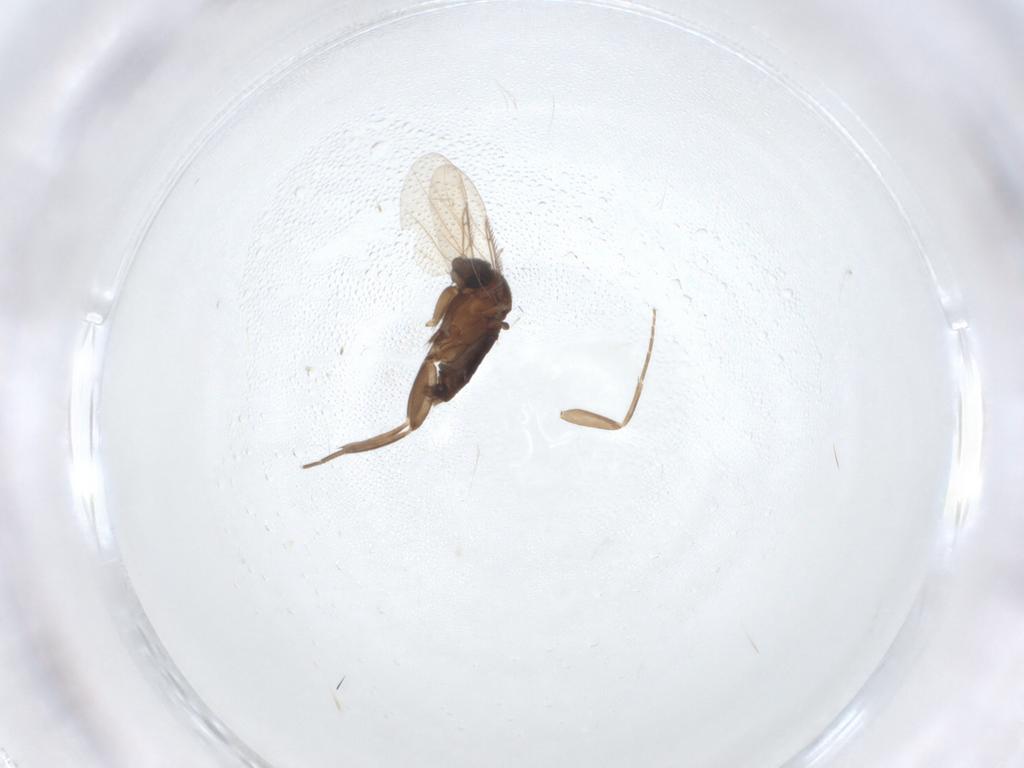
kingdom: Animalia
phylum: Arthropoda
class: Insecta
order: Diptera
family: Phoridae
